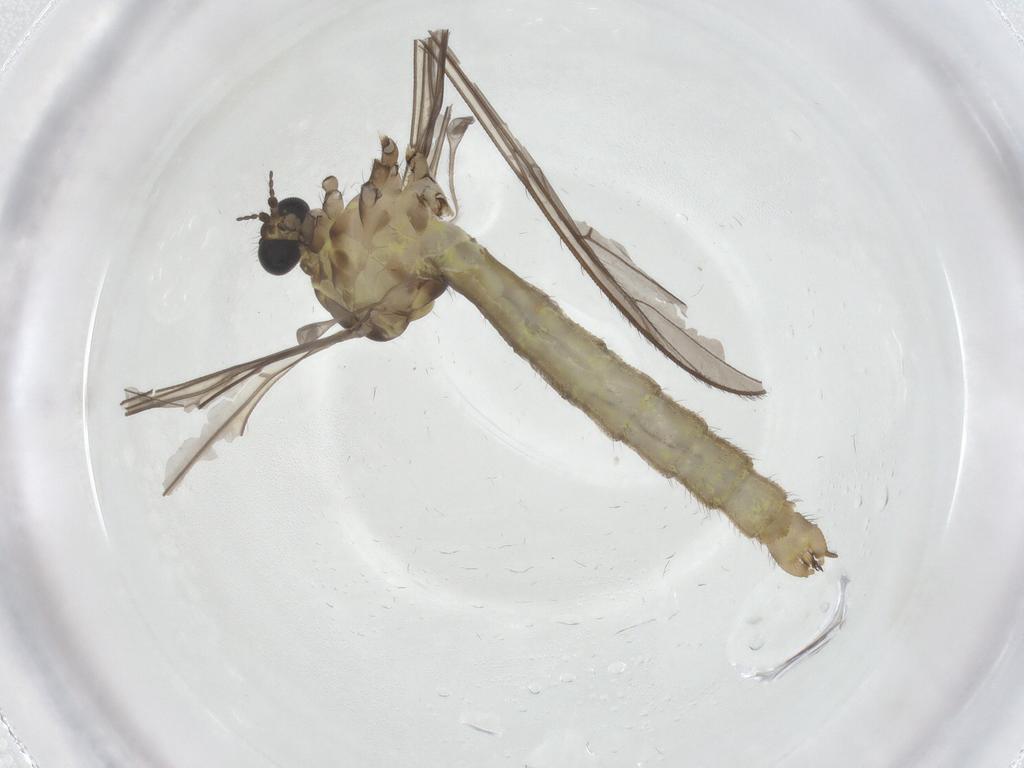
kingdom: Animalia
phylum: Arthropoda
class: Insecta
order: Diptera
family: Limoniidae
